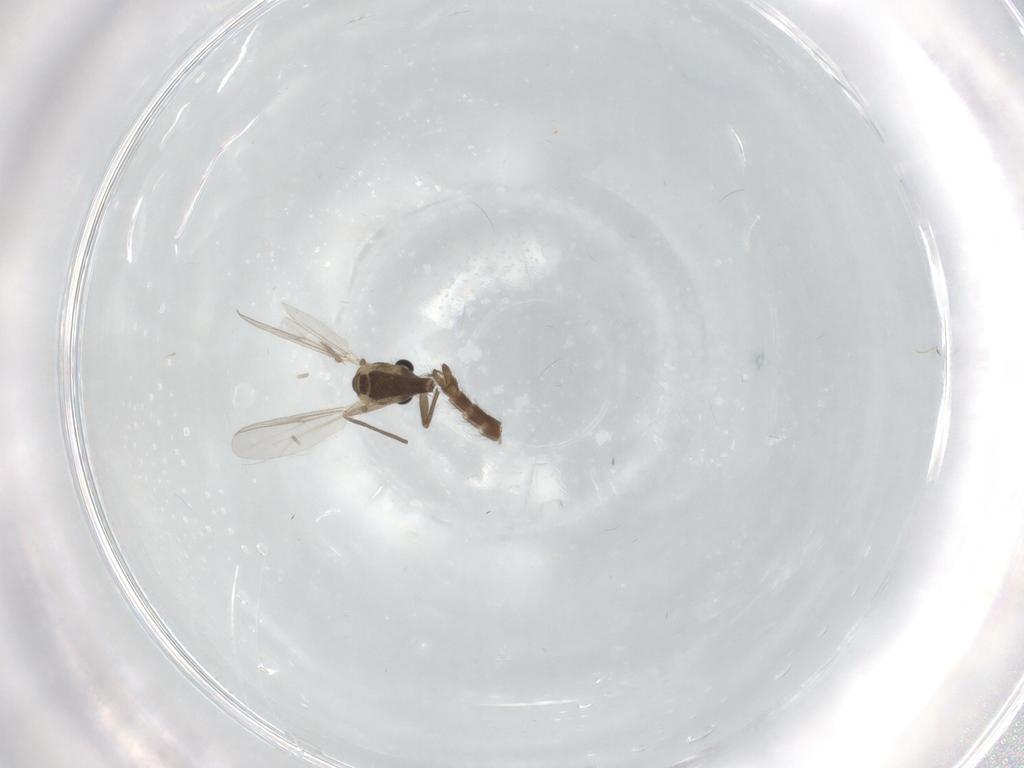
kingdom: Animalia
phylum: Arthropoda
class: Insecta
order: Diptera
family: Chironomidae
